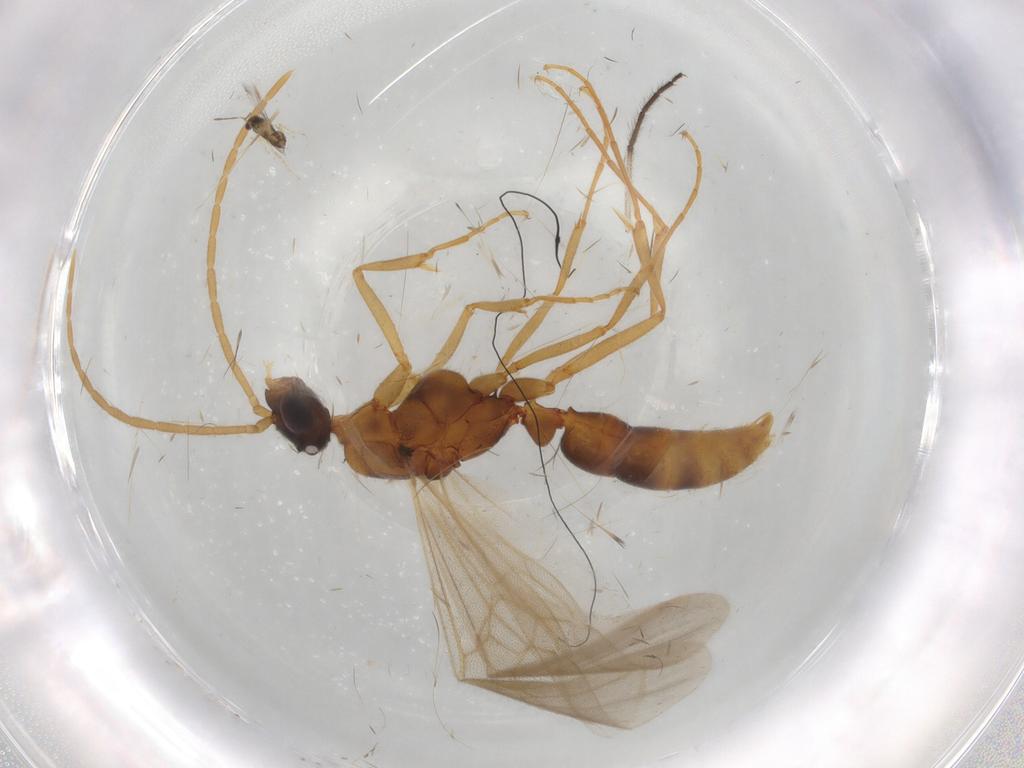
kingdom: Animalia
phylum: Arthropoda
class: Insecta
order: Hymenoptera
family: Formicidae
